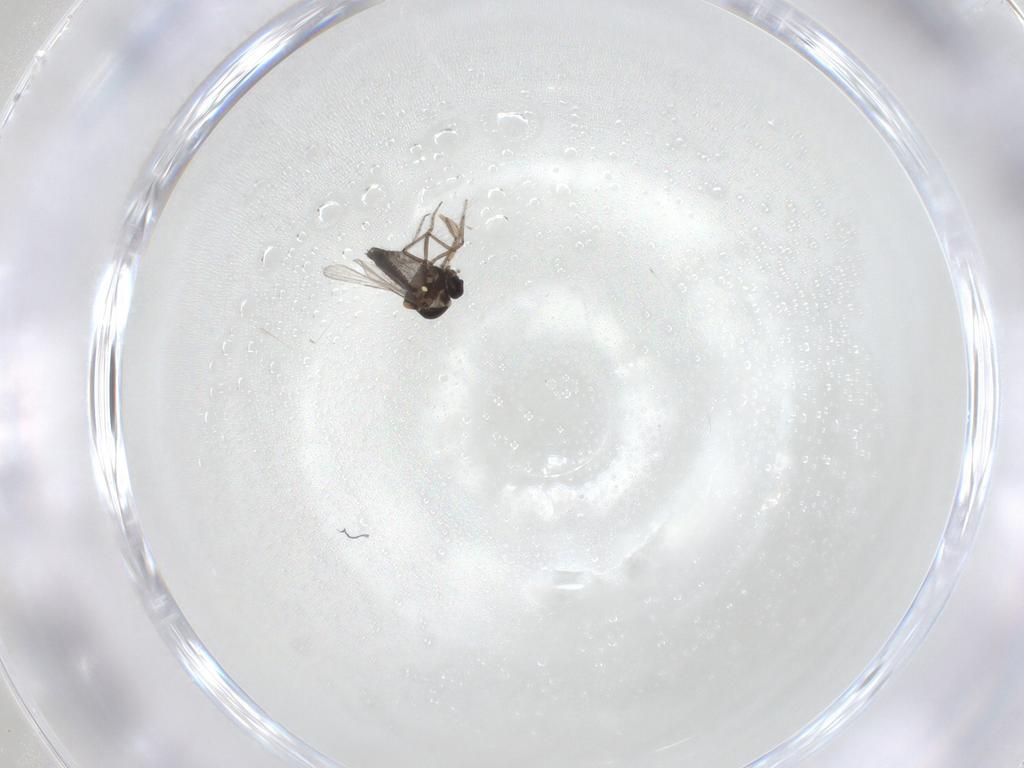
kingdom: Animalia
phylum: Arthropoda
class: Insecta
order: Diptera
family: Ceratopogonidae
